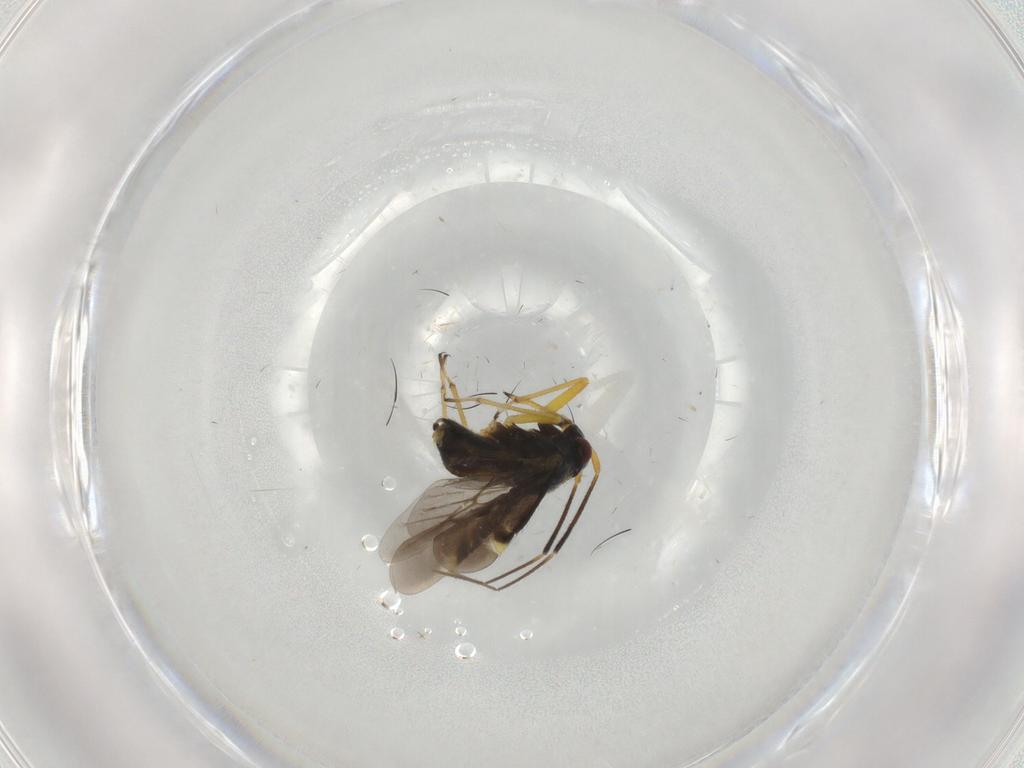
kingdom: Animalia
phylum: Arthropoda
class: Insecta
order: Hemiptera
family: Miridae
